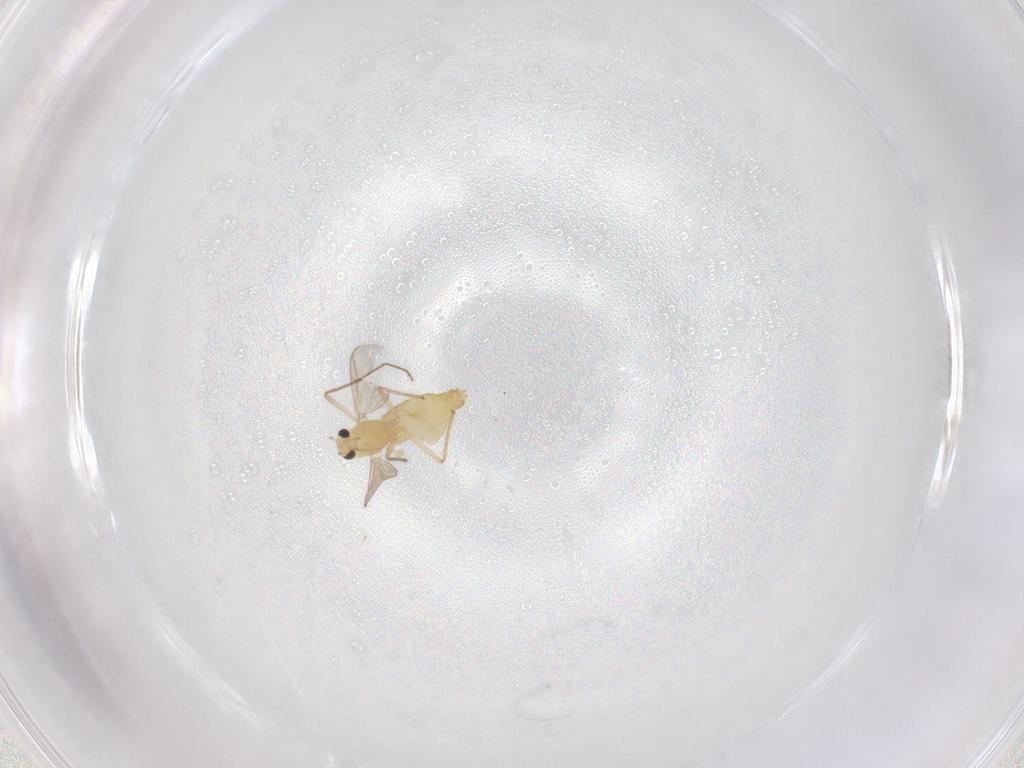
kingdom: Animalia
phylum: Arthropoda
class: Insecta
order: Diptera
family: Chironomidae
